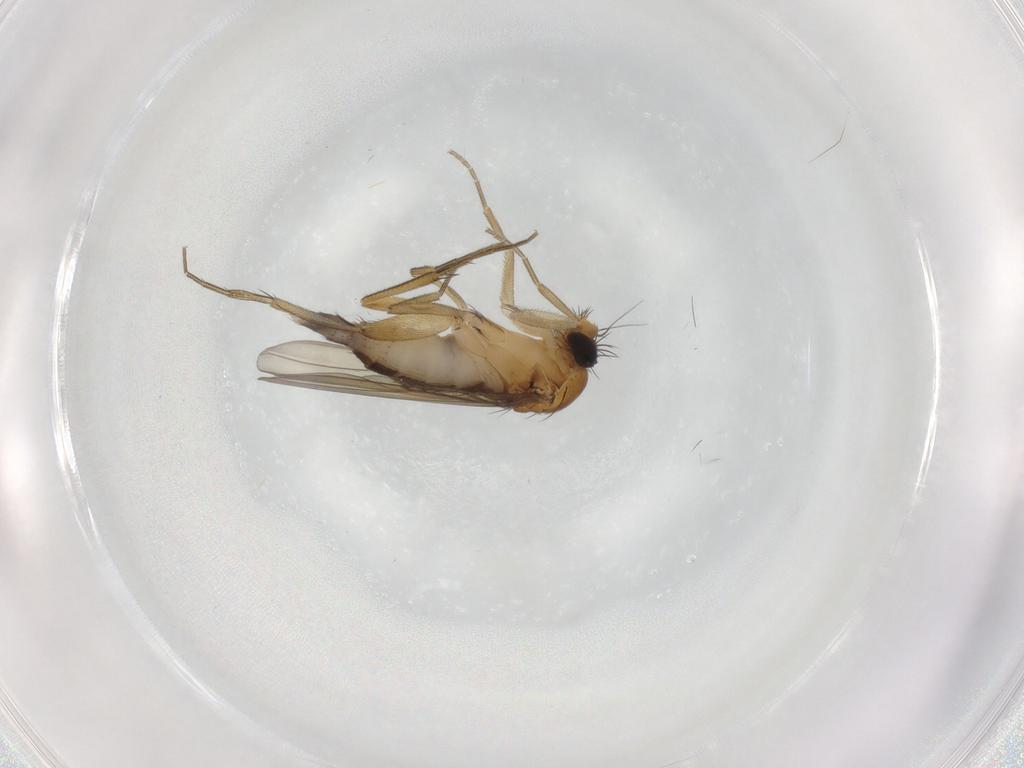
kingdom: Animalia
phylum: Arthropoda
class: Insecta
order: Diptera
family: Phoridae
